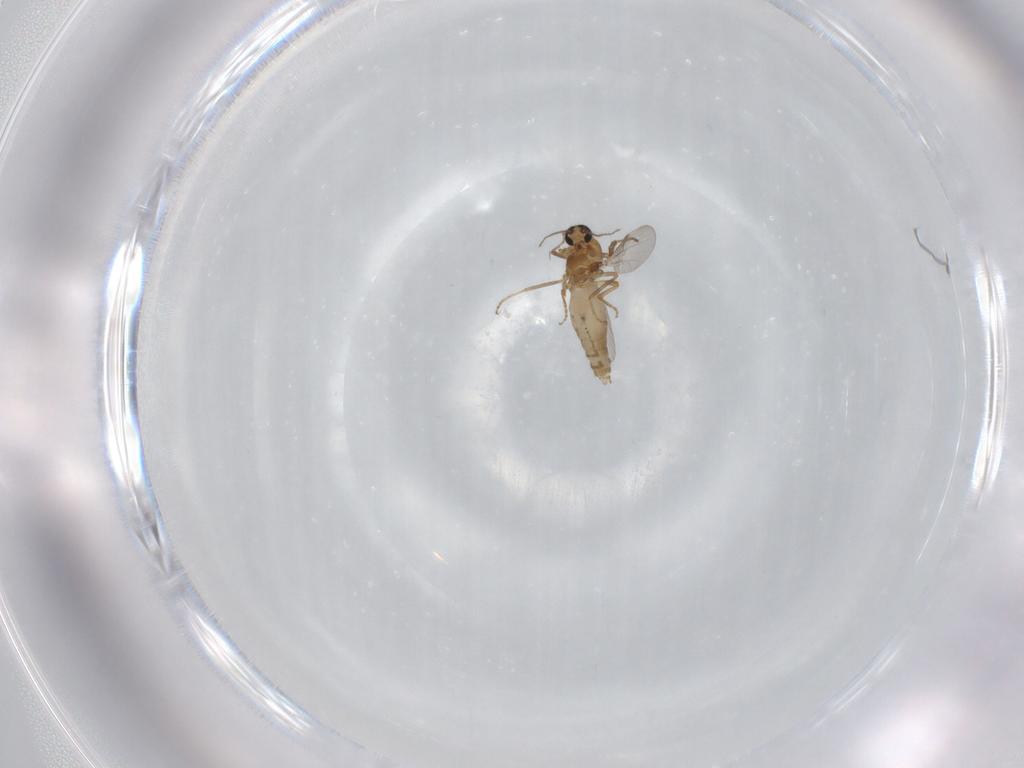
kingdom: Animalia
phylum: Arthropoda
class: Insecta
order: Diptera
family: Ceratopogonidae
